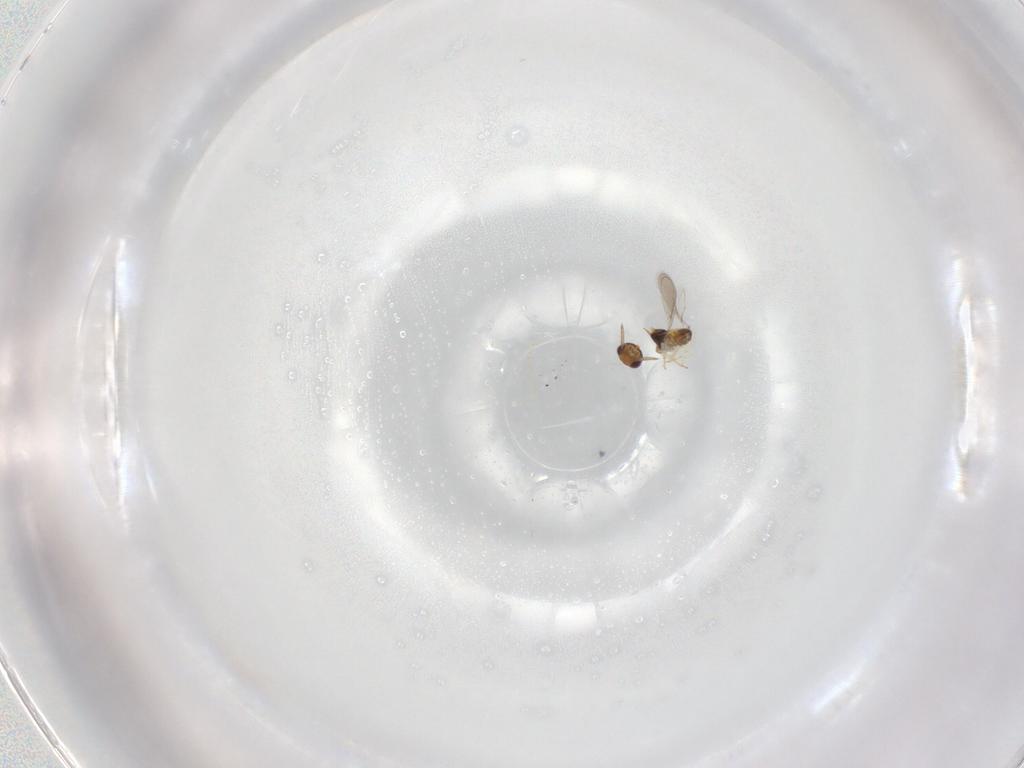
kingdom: Animalia
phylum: Arthropoda
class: Insecta
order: Hymenoptera
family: Aphelinidae
